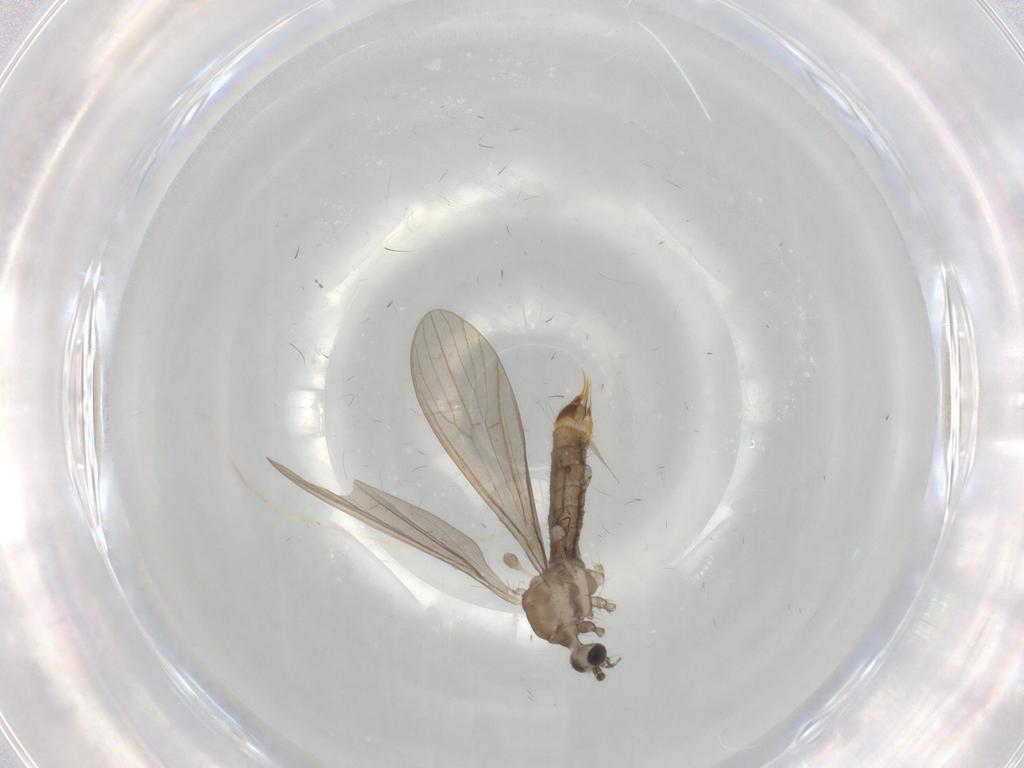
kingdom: Animalia
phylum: Arthropoda
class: Insecta
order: Diptera
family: Limoniidae
